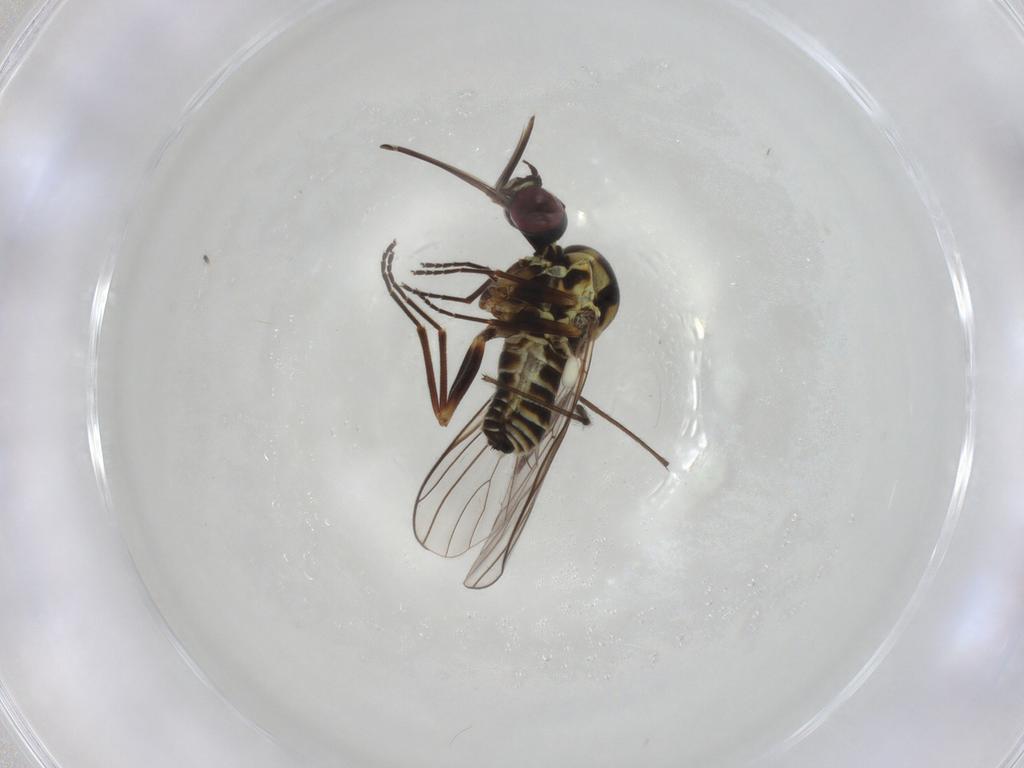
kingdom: Animalia
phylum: Arthropoda
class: Insecta
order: Diptera
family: Chironomidae
